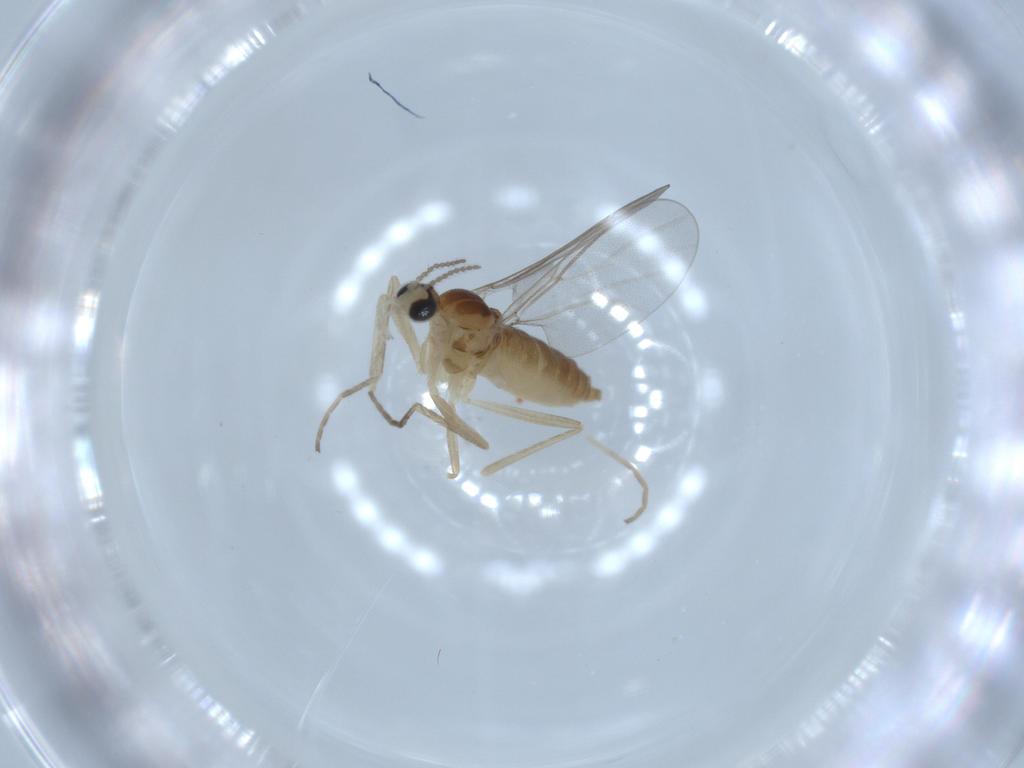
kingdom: Animalia
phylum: Arthropoda
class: Insecta
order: Diptera
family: Cecidomyiidae
